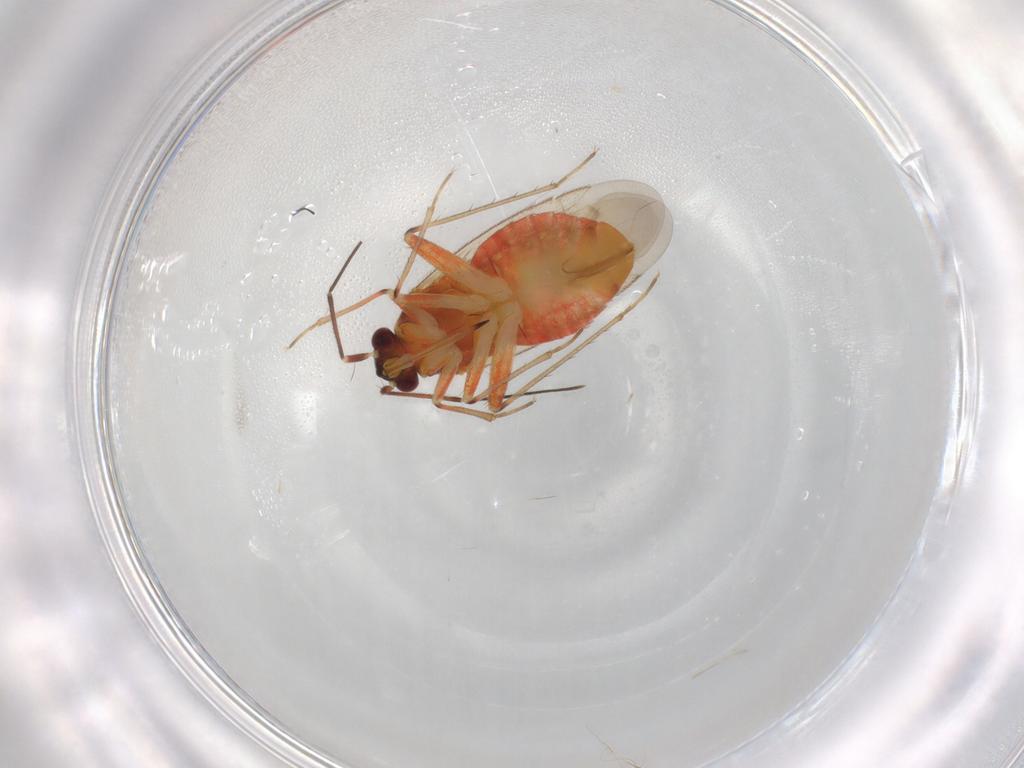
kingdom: Animalia
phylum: Arthropoda
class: Insecta
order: Hemiptera
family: Miridae
